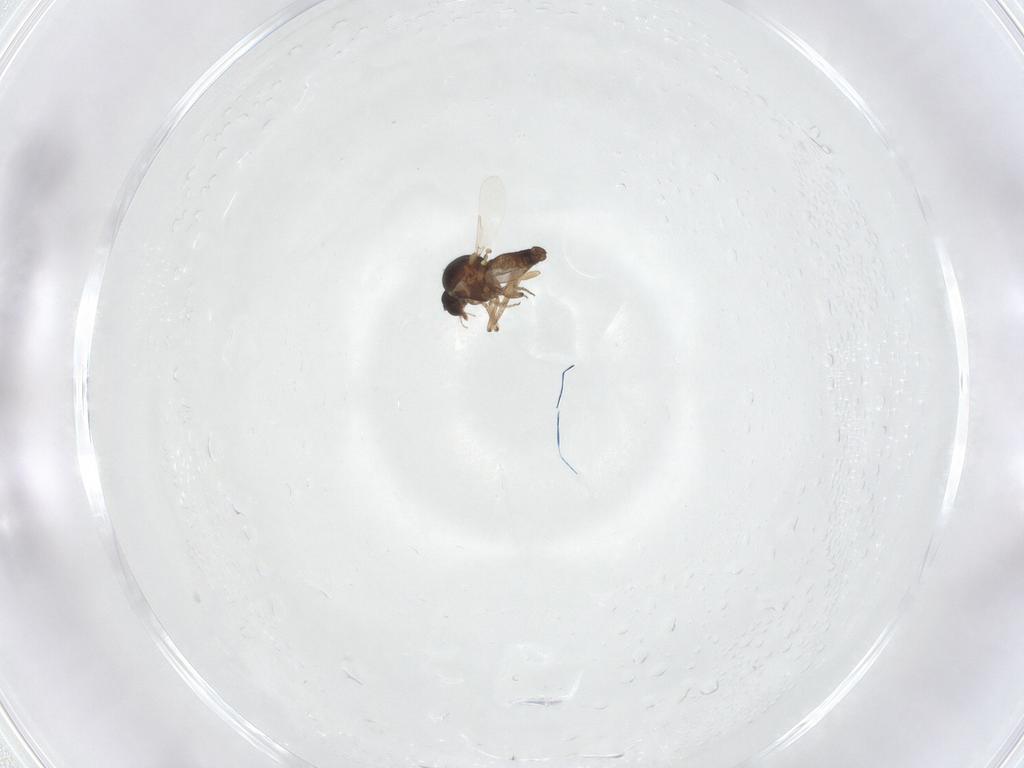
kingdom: Animalia
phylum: Arthropoda
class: Insecta
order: Diptera
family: Ceratopogonidae
